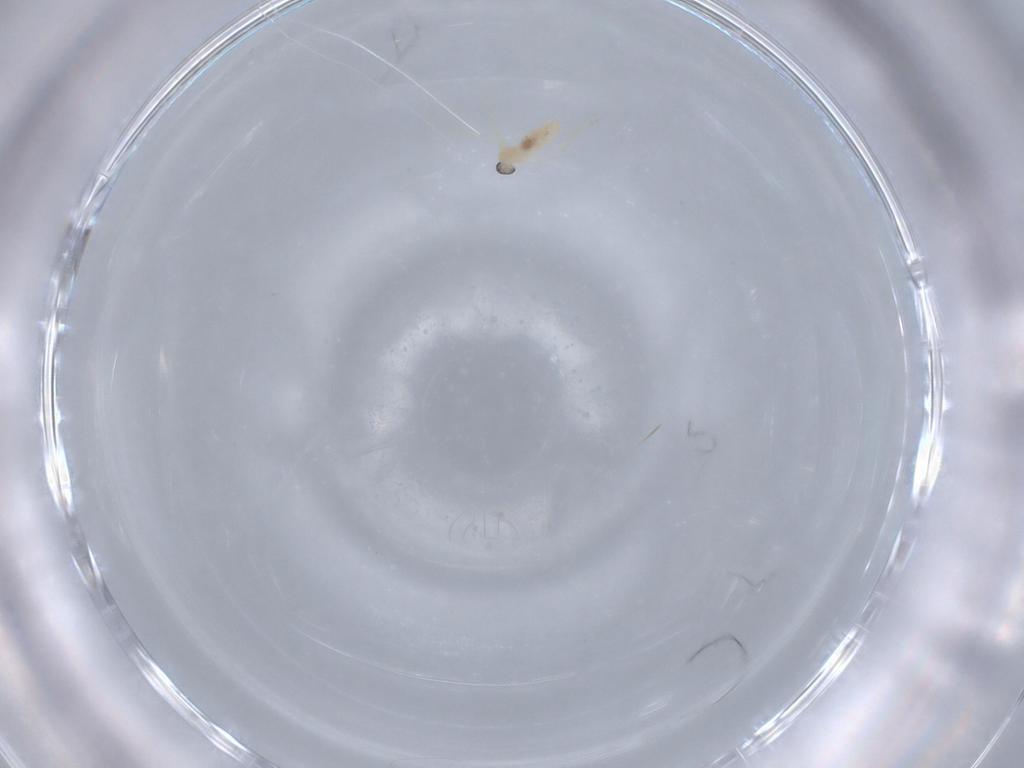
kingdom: Animalia
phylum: Arthropoda
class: Insecta
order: Diptera
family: Cecidomyiidae
